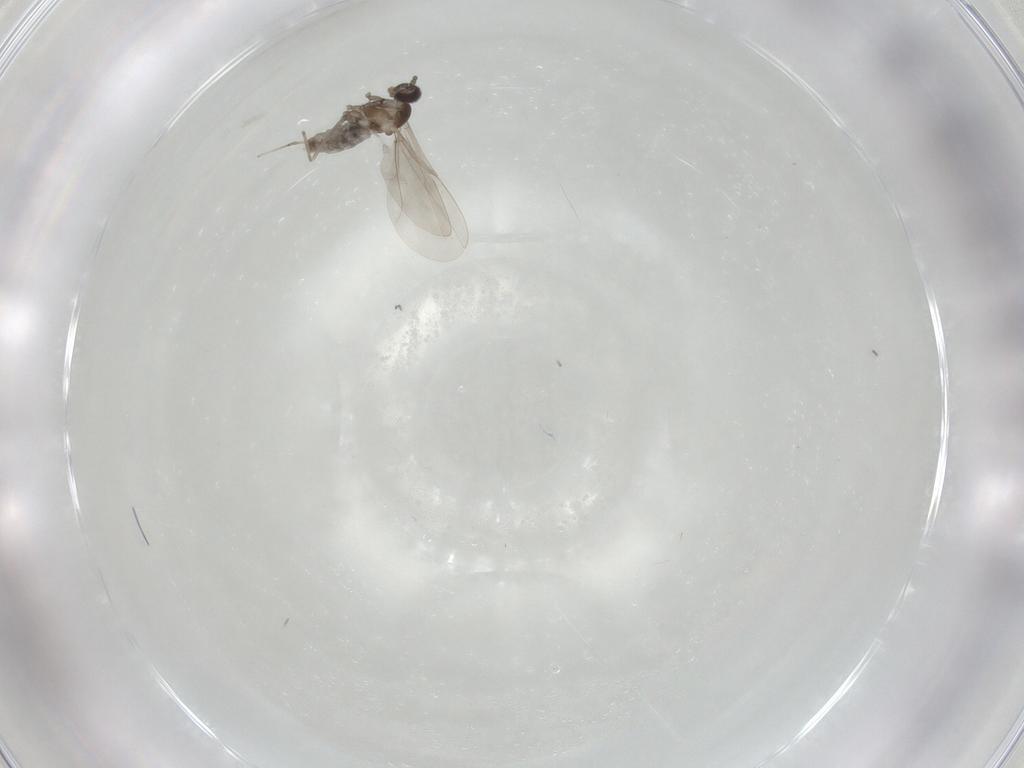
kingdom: Animalia
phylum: Arthropoda
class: Insecta
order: Diptera
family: Cecidomyiidae
